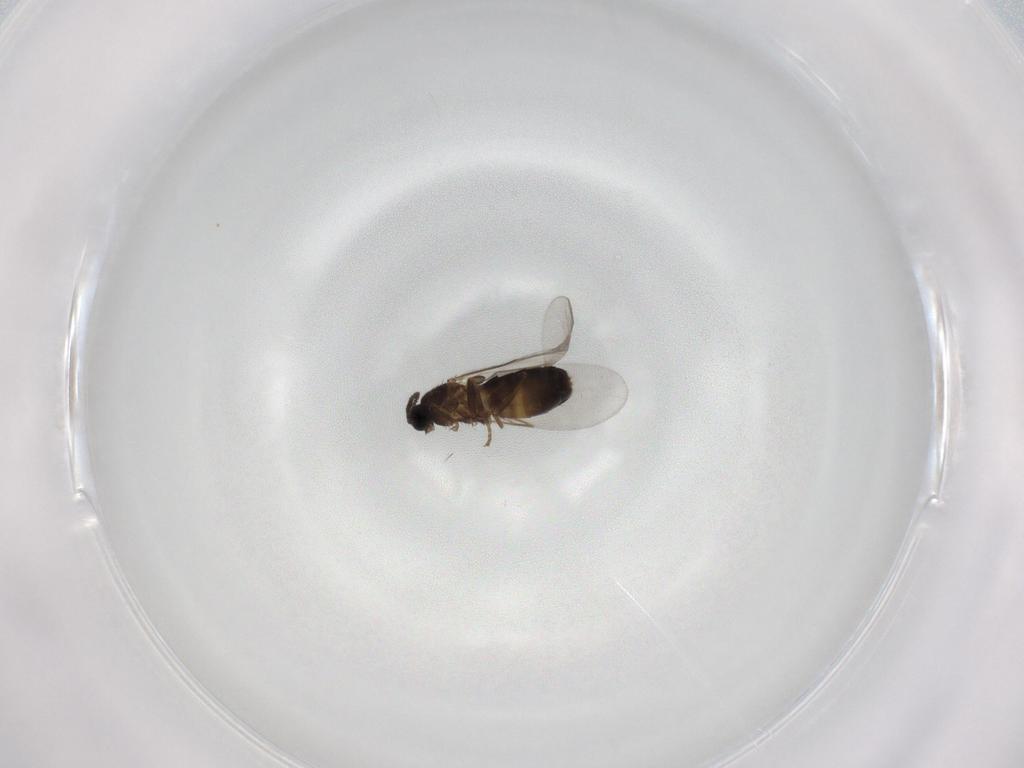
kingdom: Animalia
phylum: Arthropoda
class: Insecta
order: Diptera
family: Scatopsidae
